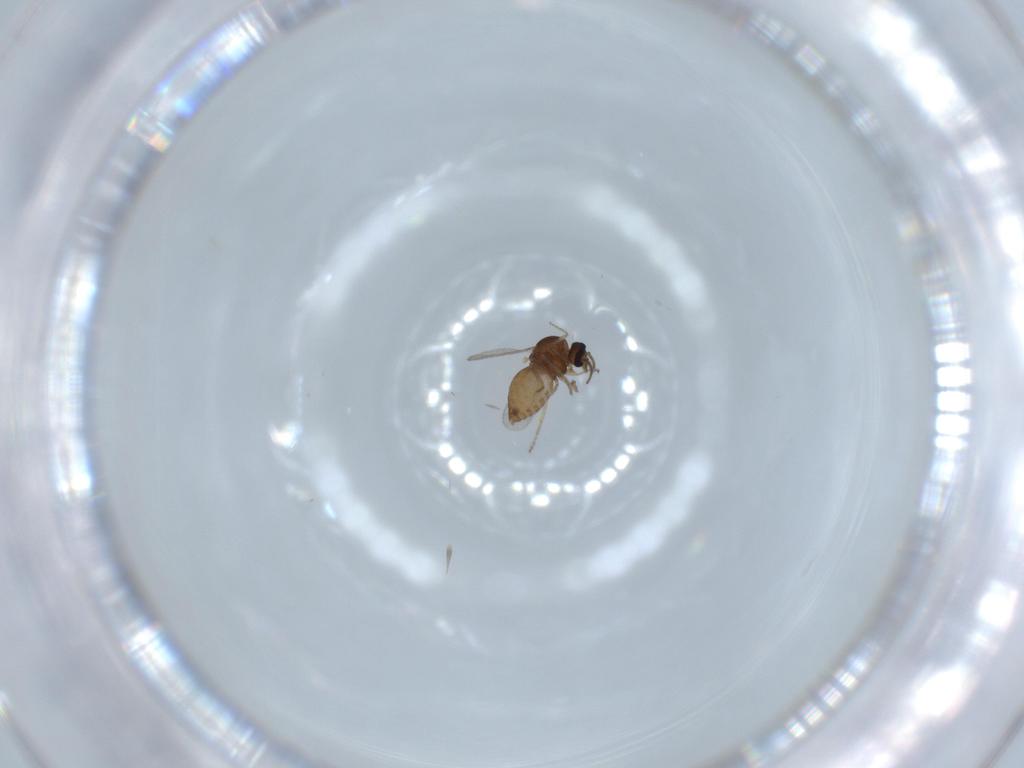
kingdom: Animalia
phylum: Arthropoda
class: Insecta
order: Diptera
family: Ceratopogonidae
